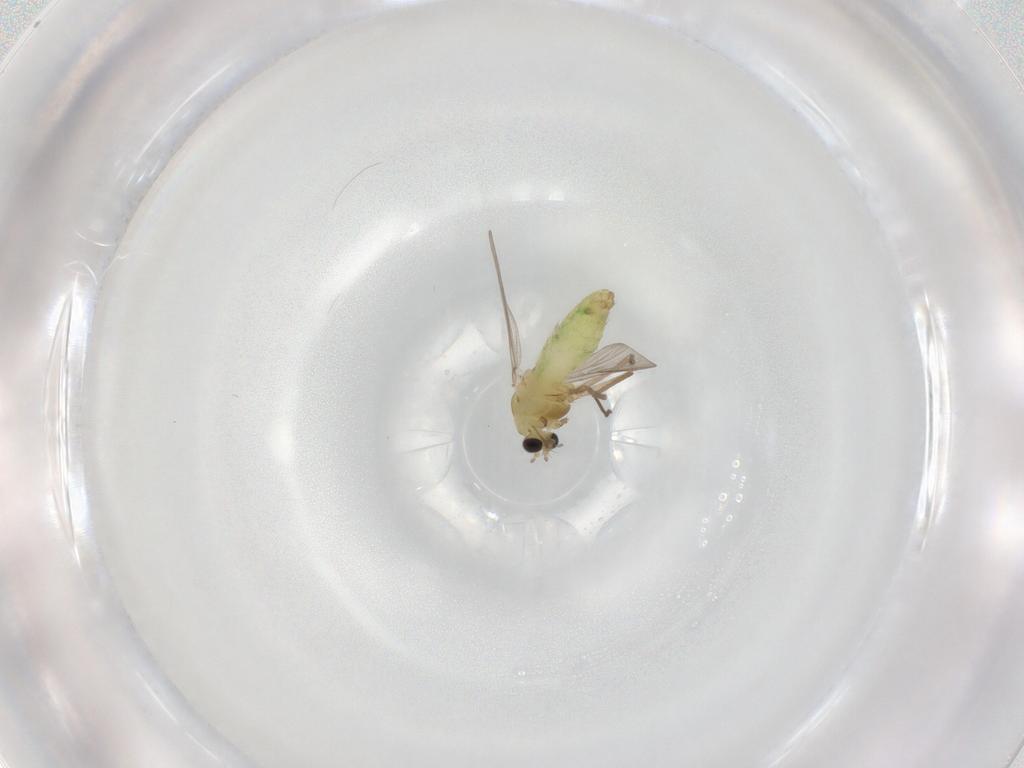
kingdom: Animalia
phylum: Arthropoda
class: Insecta
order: Diptera
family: Chironomidae
